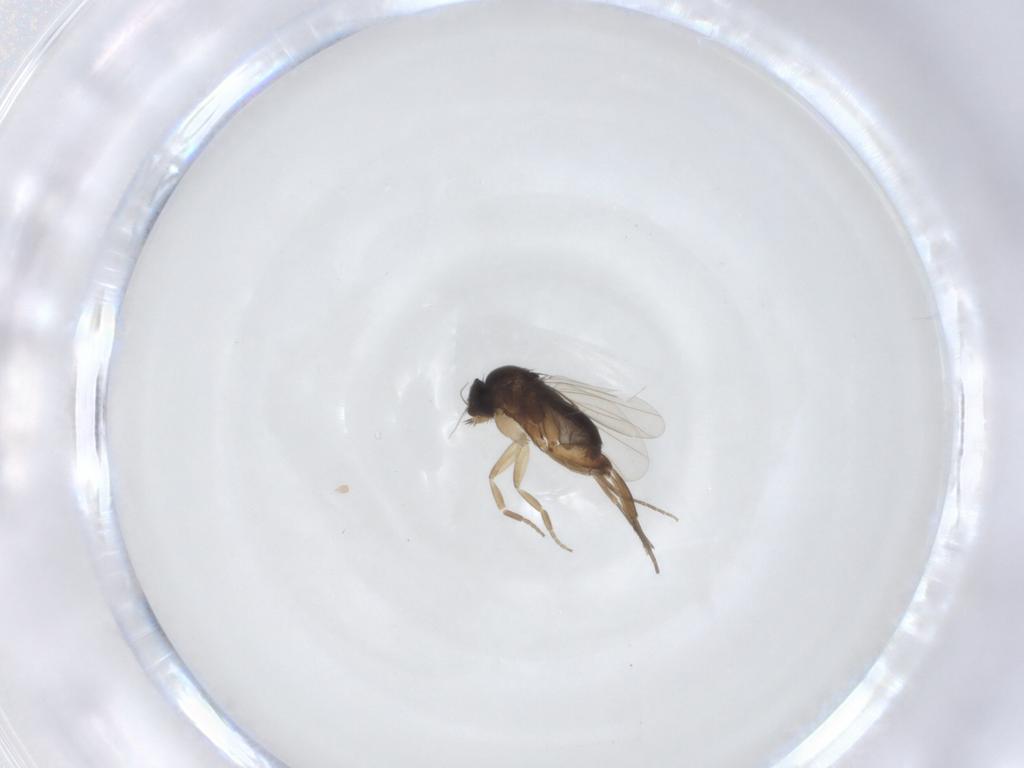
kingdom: Animalia
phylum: Arthropoda
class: Insecta
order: Diptera
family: Phoridae
